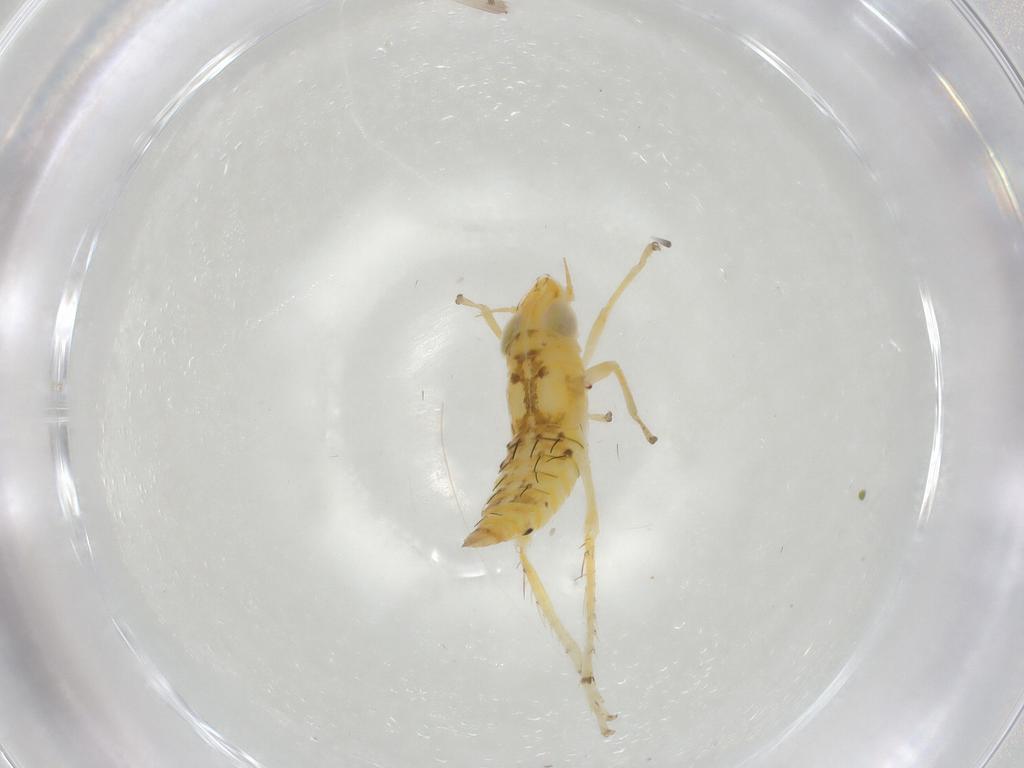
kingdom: Animalia
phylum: Arthropoda
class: Insecta
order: Hemiptera
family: Cicadellidae
